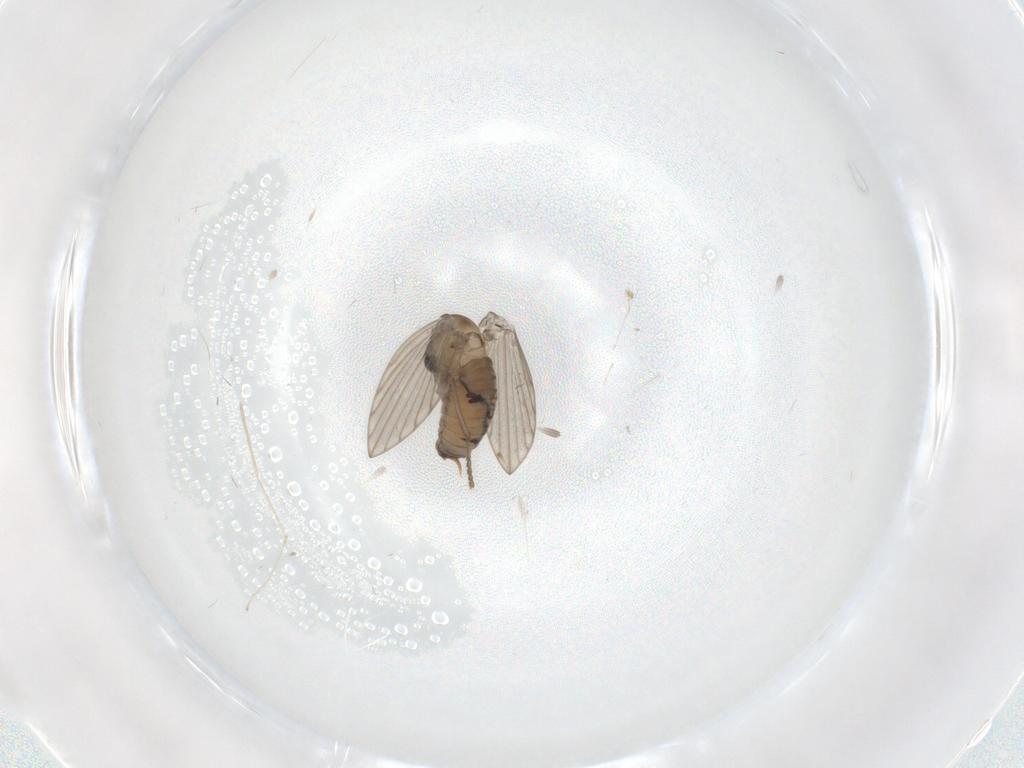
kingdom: Animalia
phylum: Arthropoda
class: Insecta
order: Diptera
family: Psychodidae
